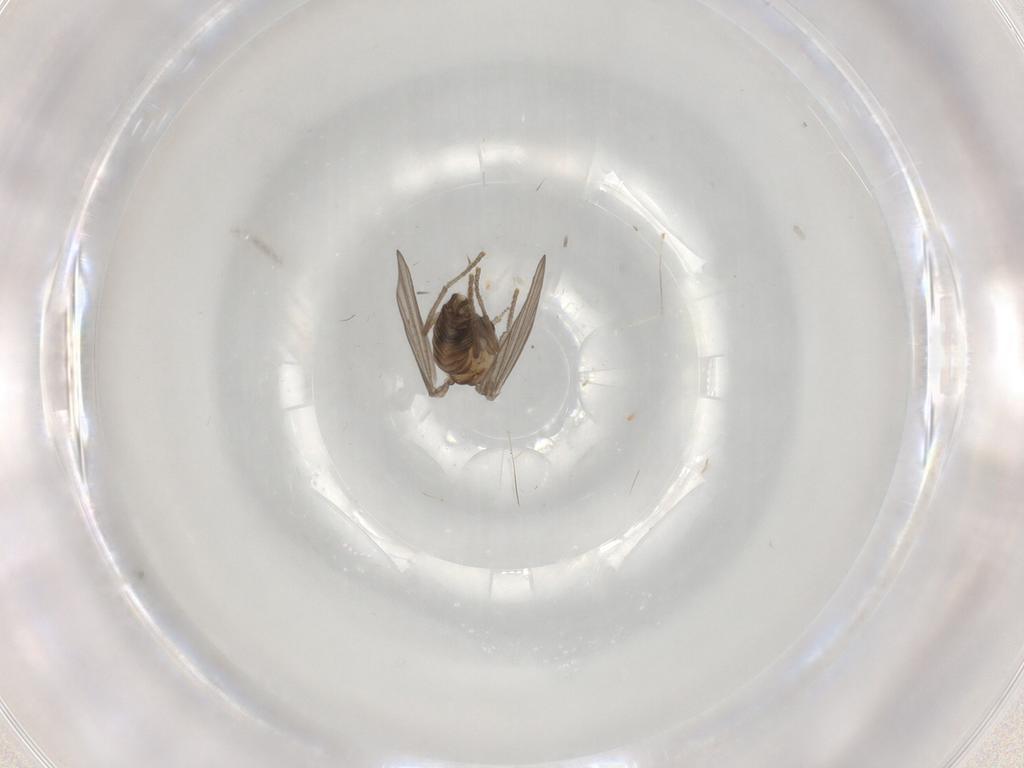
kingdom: Animalia
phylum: Arthropoda
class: Insecta
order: Diptera
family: Cecidomyiidae
